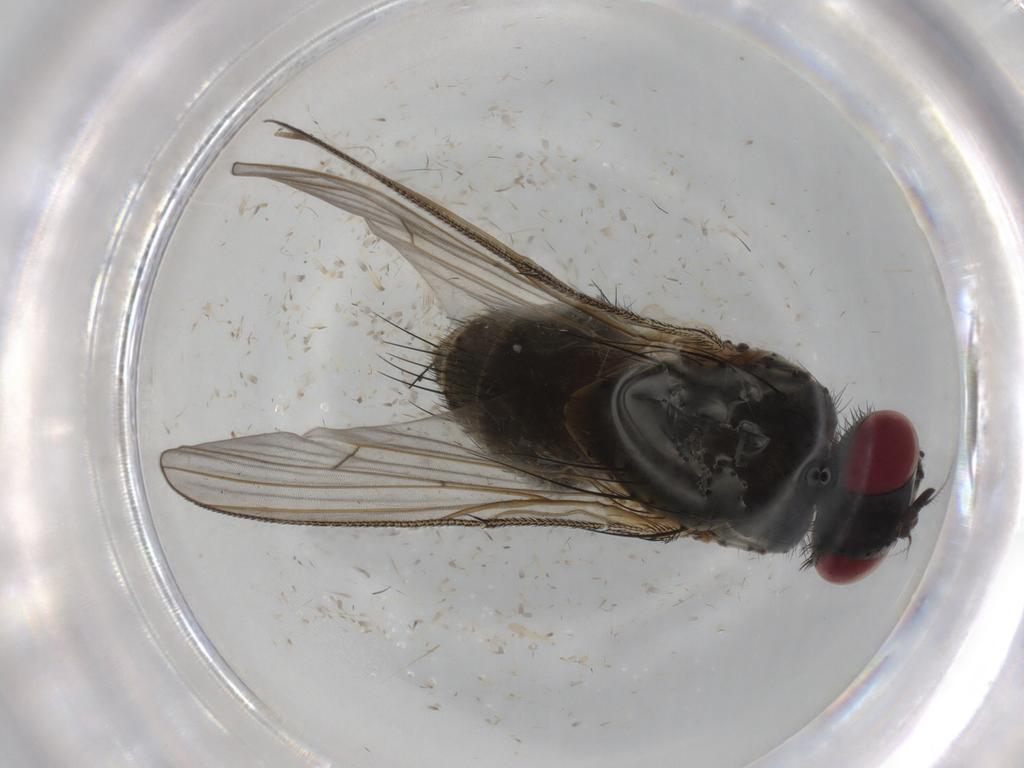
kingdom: Animalia
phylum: Arthropoda
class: Insecta
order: Diptera
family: Muscidae
